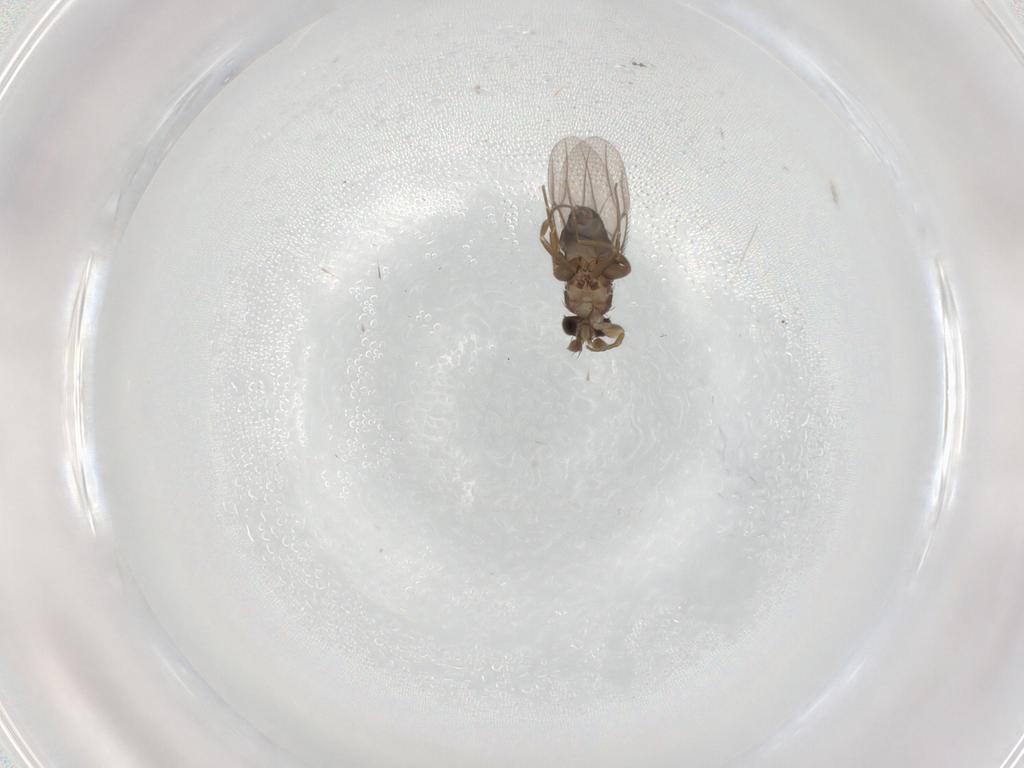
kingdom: Animalia
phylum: Arthropoda
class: Insecta
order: Diptera
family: Phoridae
